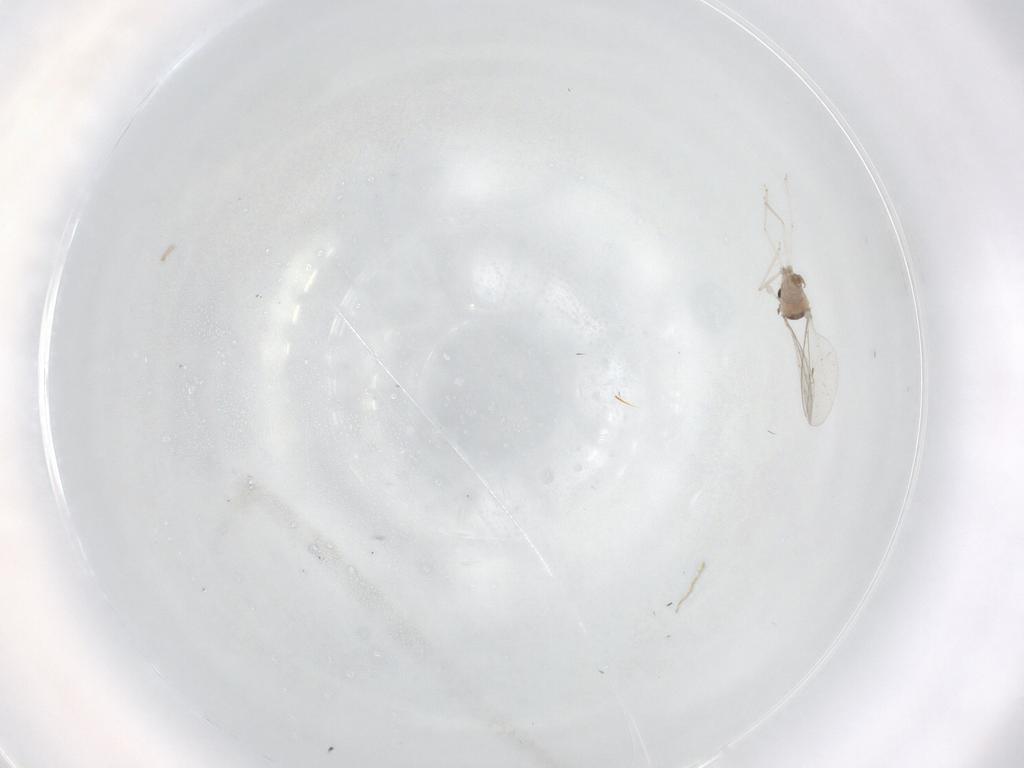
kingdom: Animalia
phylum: Arthropoda
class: Insecta
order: Diptera
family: Cecidomyiidae
